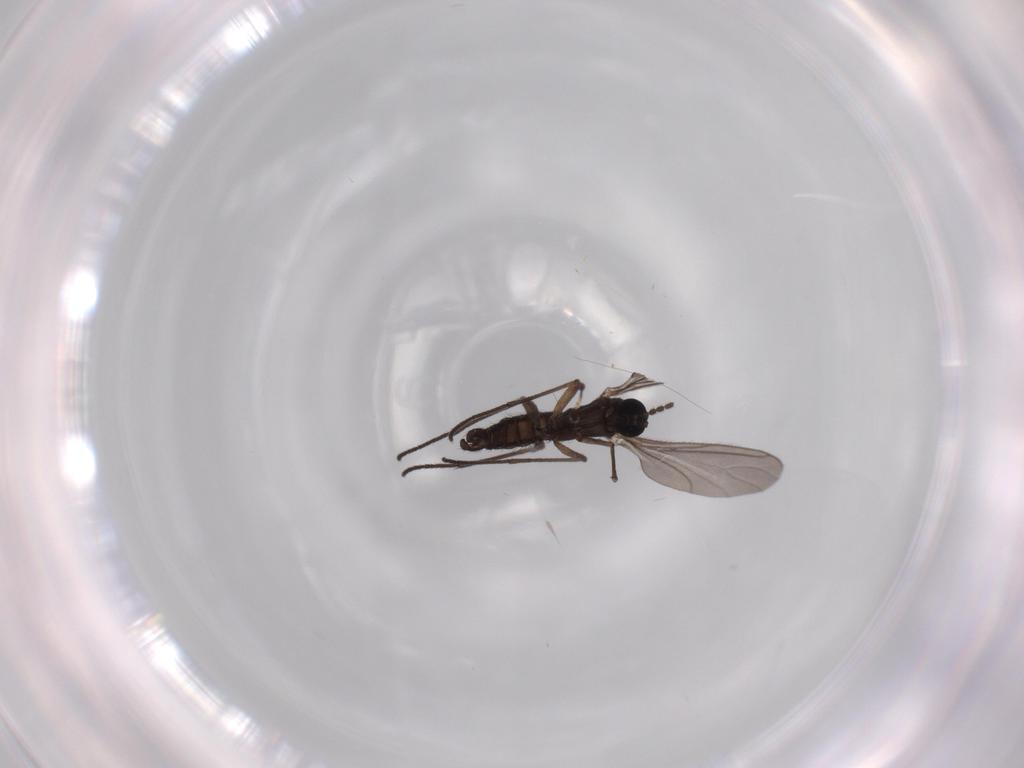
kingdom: Animalia
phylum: Arthropoda
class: Insecta
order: Diptera
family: Sciaridae
